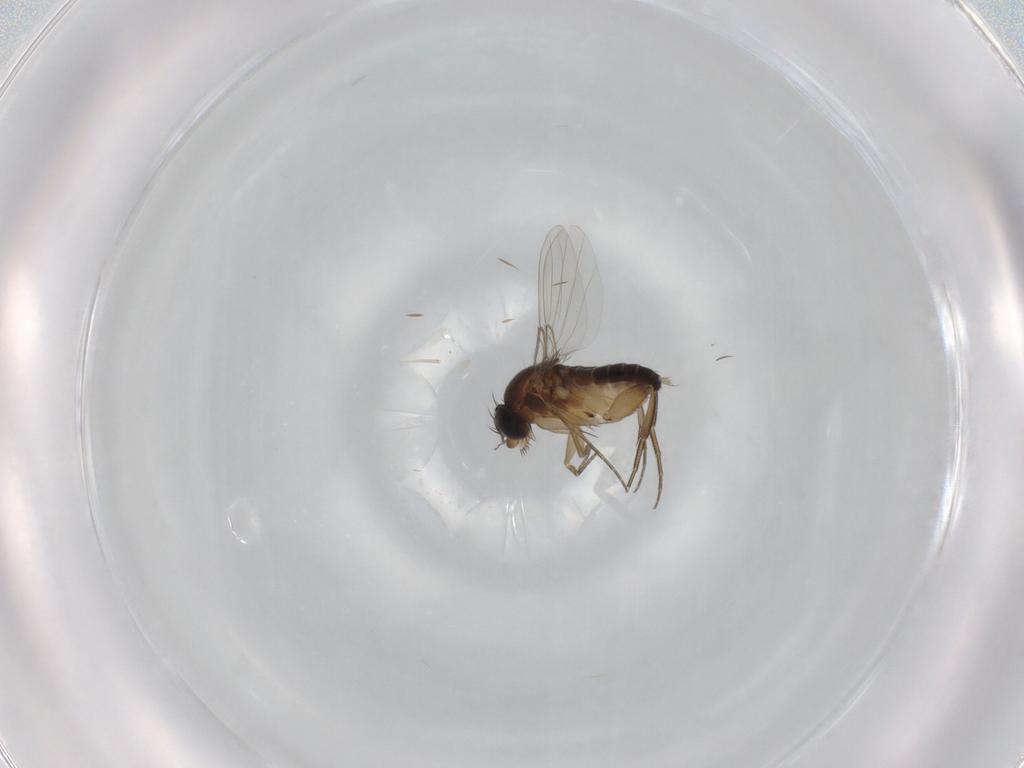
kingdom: Animalia
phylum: Arthropoda
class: Insecta
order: Diptera
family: Phoridae
